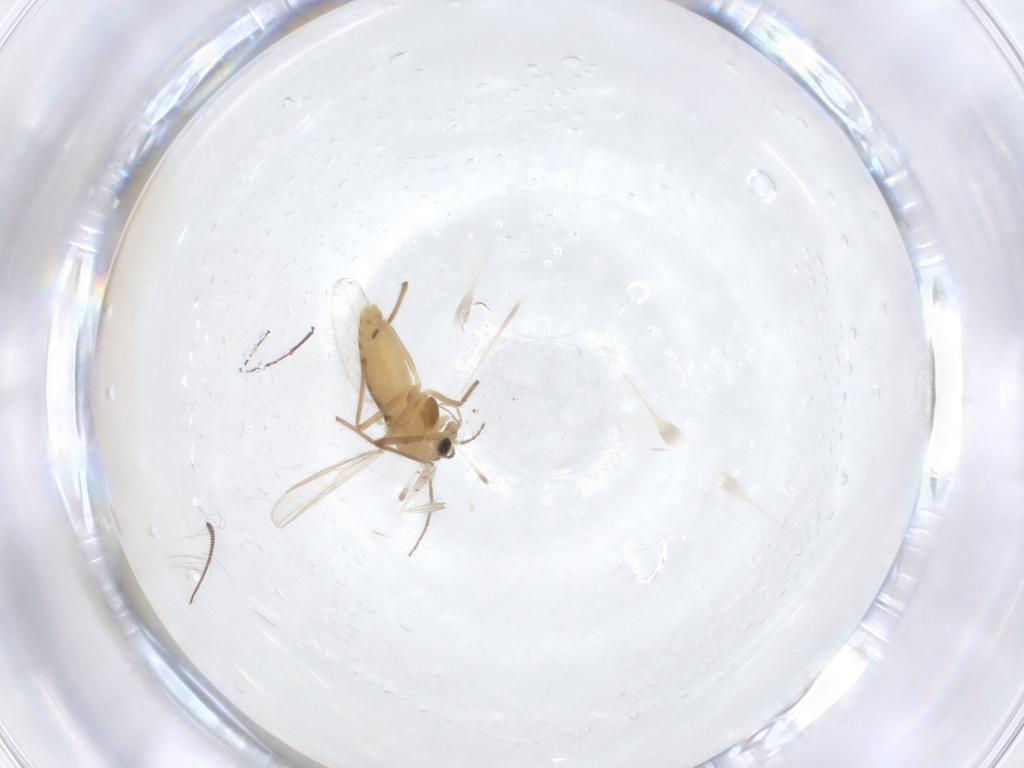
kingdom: Animalia
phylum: Arthropoda
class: Insecta
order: Diptera
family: Chironomidae
